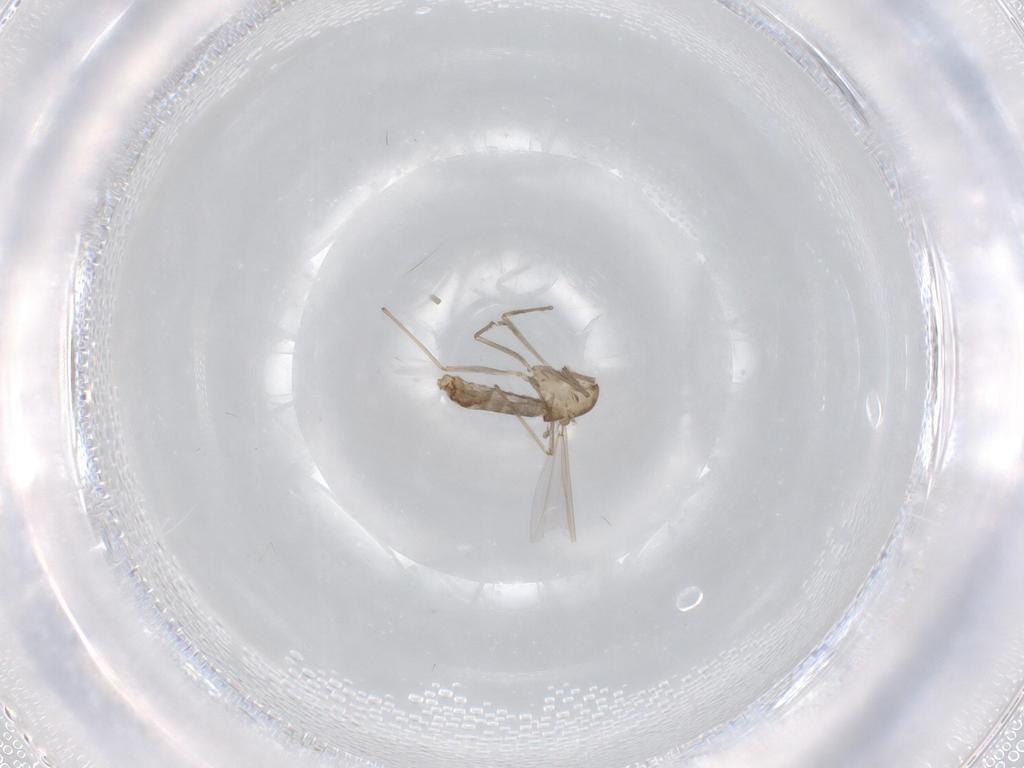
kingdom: Animalia
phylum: Arthropoda
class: Insecta
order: Diptera
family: Chironomidae
